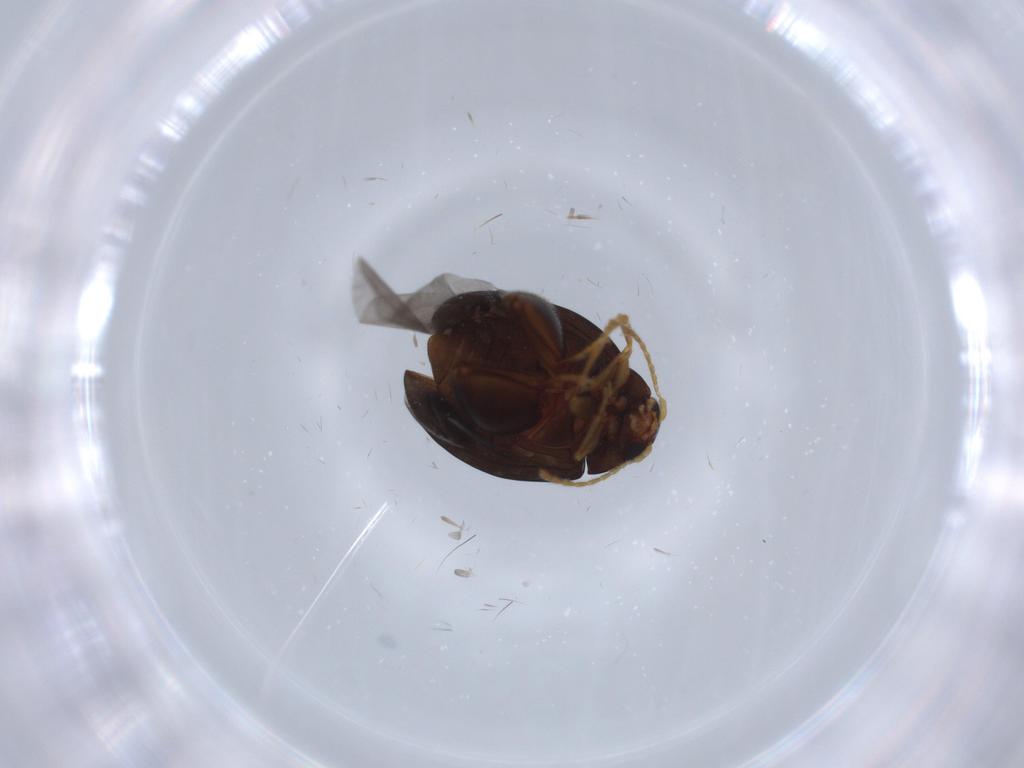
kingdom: Animalia
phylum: Arthropoda
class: Insecta
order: Coleoptera
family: Chrysomelidae
